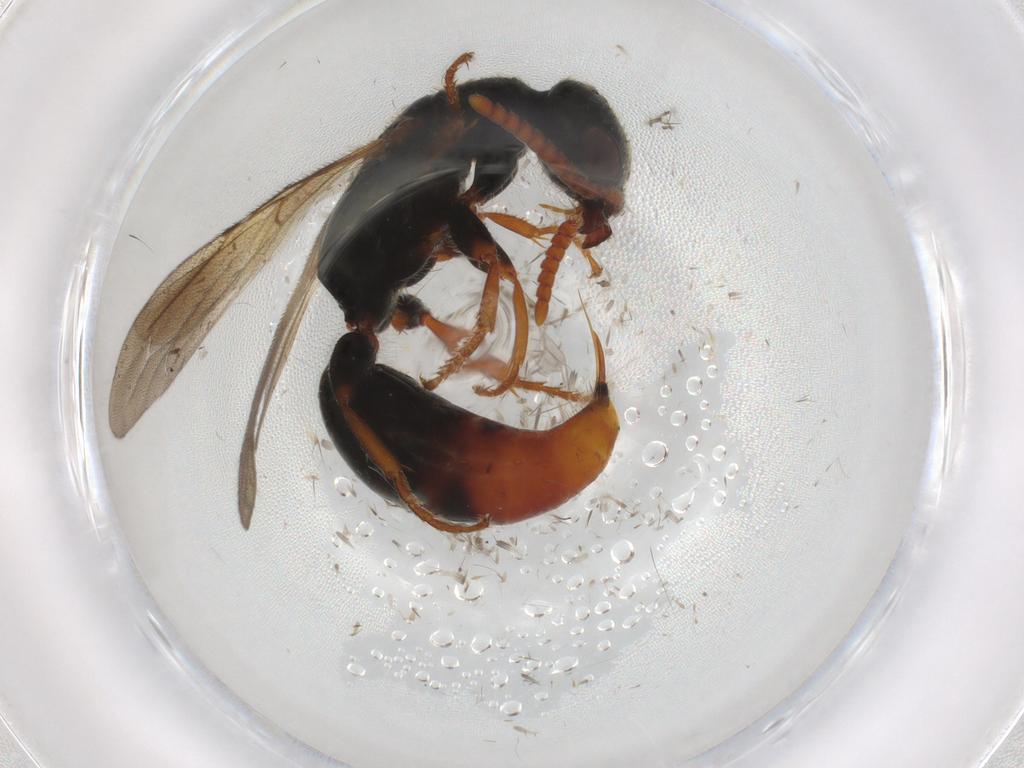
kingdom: Animalia
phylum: Arthropoda
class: Insecta
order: Hymenoptera
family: Bethylidae
